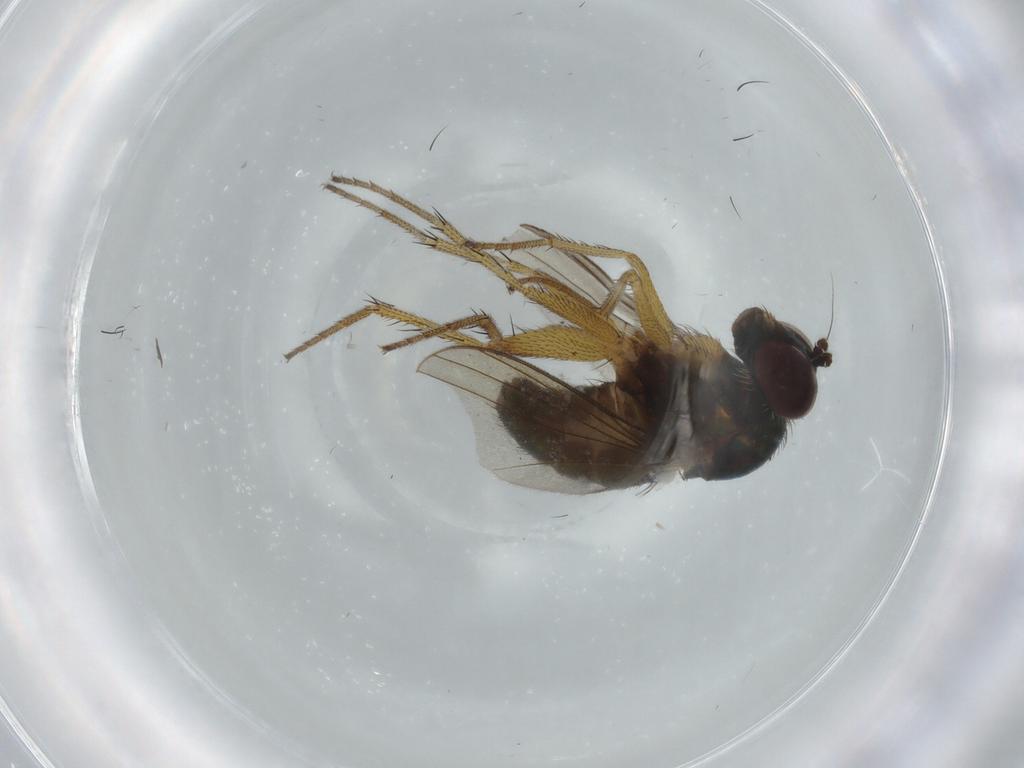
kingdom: Animalia
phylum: Arthropoda
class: Insecta
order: Diptera
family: Dolichopodidae
